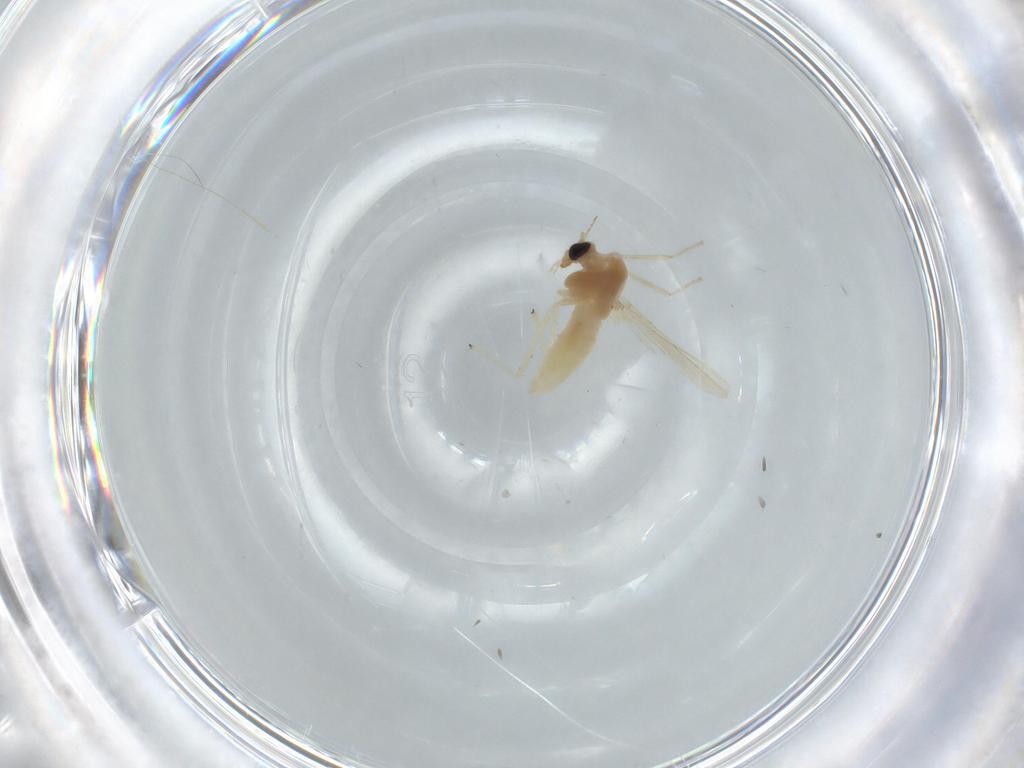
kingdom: Animalia
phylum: Arthropoda
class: Insecta
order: Diptera
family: Chironomidae
